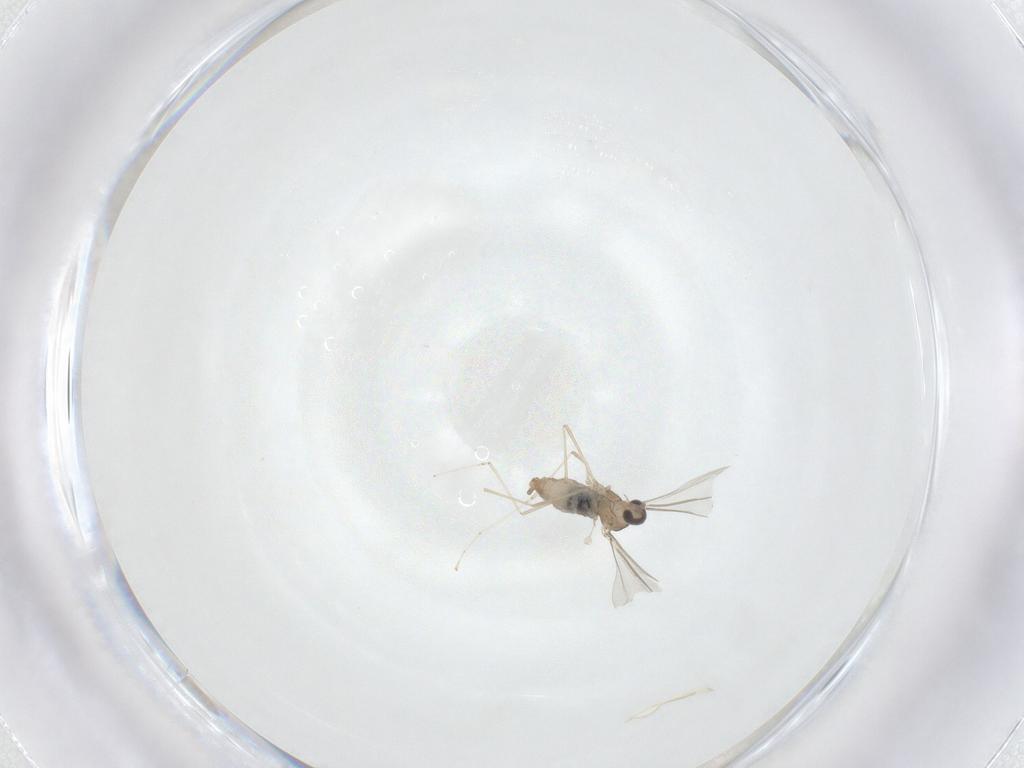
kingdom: Animalia
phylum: Arthropoda
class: Insecta
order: Diptera
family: Cecidomyiidae
